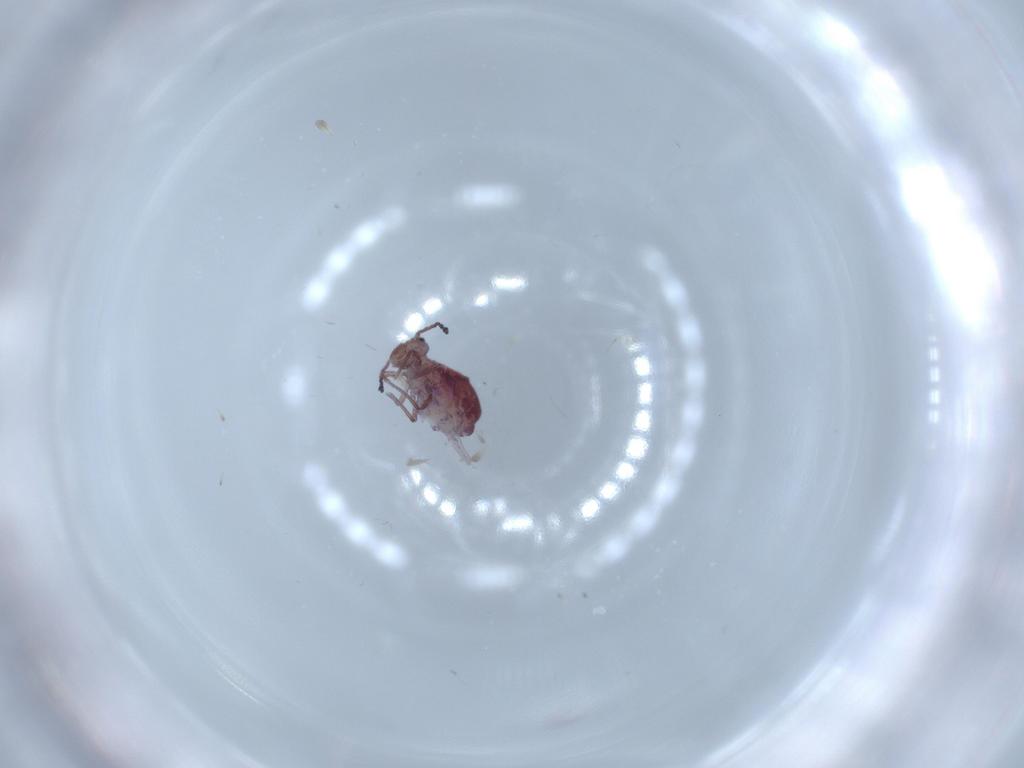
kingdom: Animalia
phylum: Arthropoda
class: Collembola
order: Symphypleona
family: Dicyrtomidae
